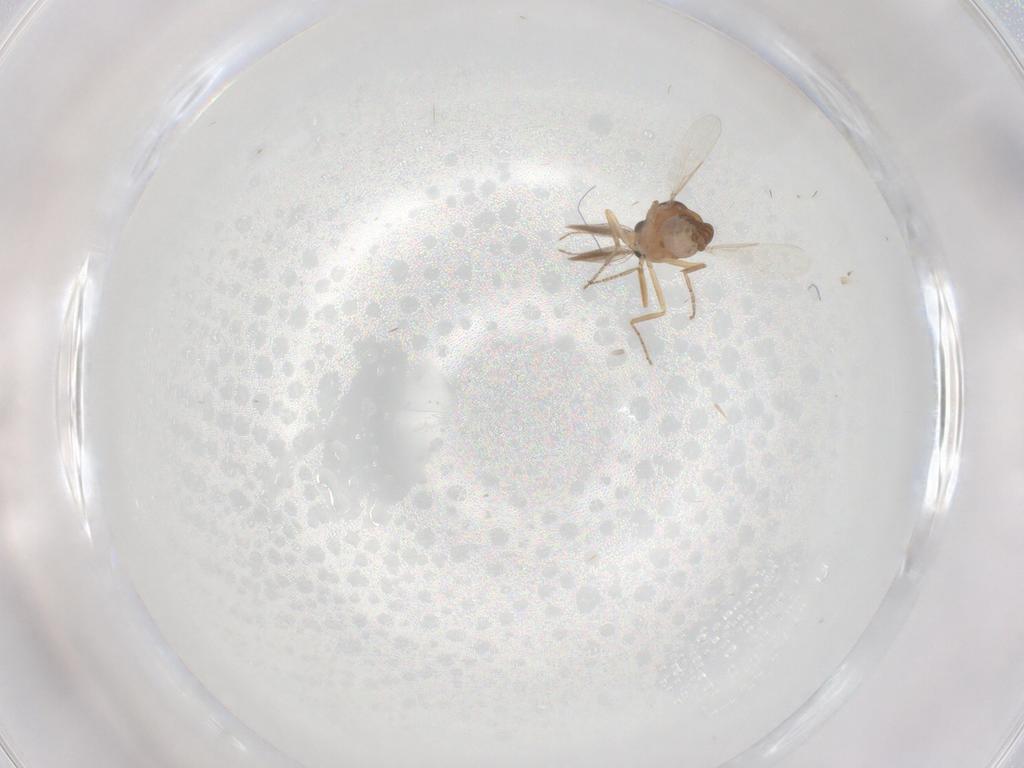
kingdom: Animalia
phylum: Arthropoda
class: Insecta
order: Diptera
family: Ceratopogonidae
